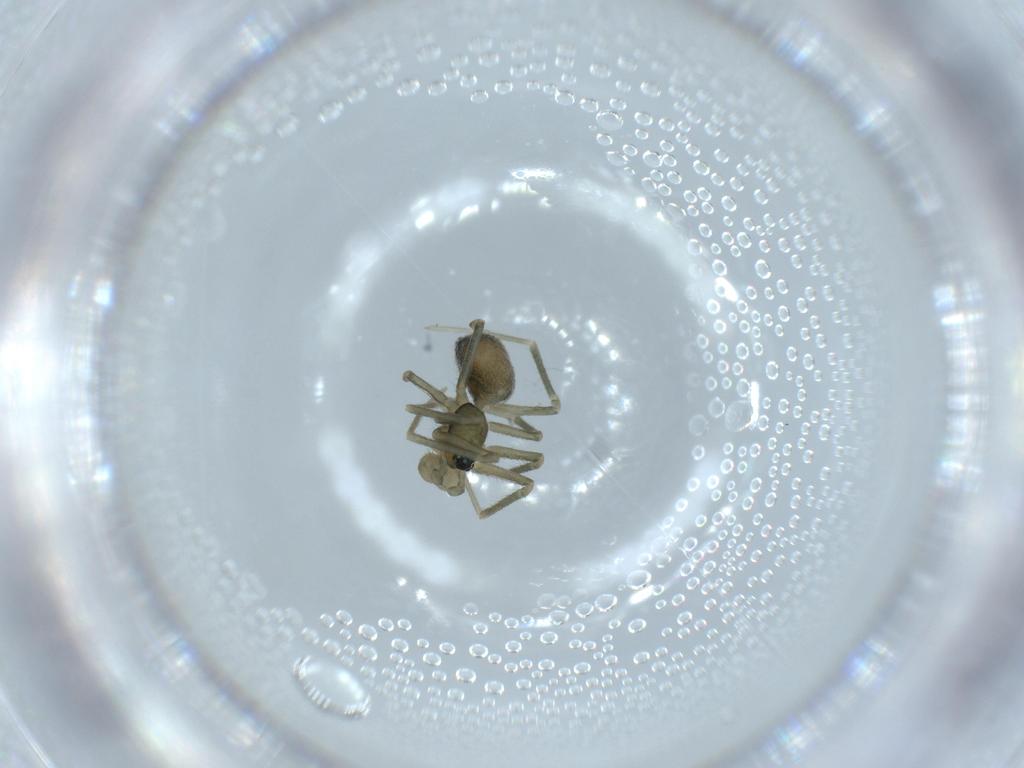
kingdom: Animalia
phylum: Arthropoda
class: Arachnida
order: Araneae
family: Linyphiidae
